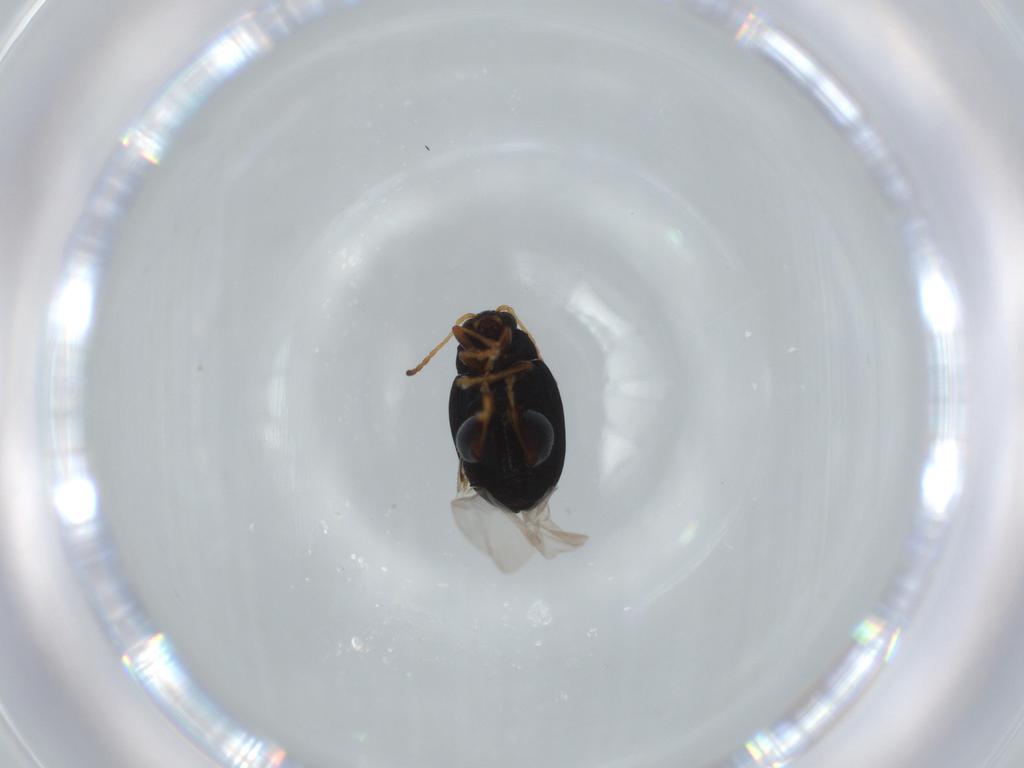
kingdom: Animalia
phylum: Arthropoda
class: Insecta
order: Coleoptera
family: Chrysomelidae
